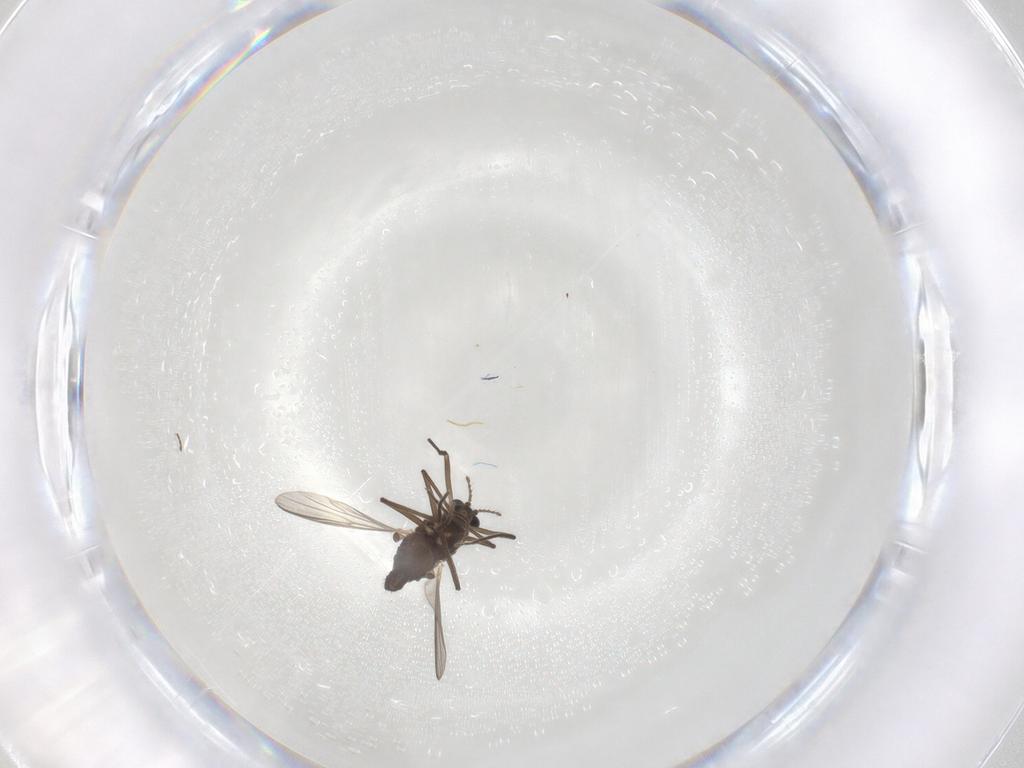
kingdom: Animalia
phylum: Arthropoda
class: Insecta
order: Diptera
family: Chironomidae
